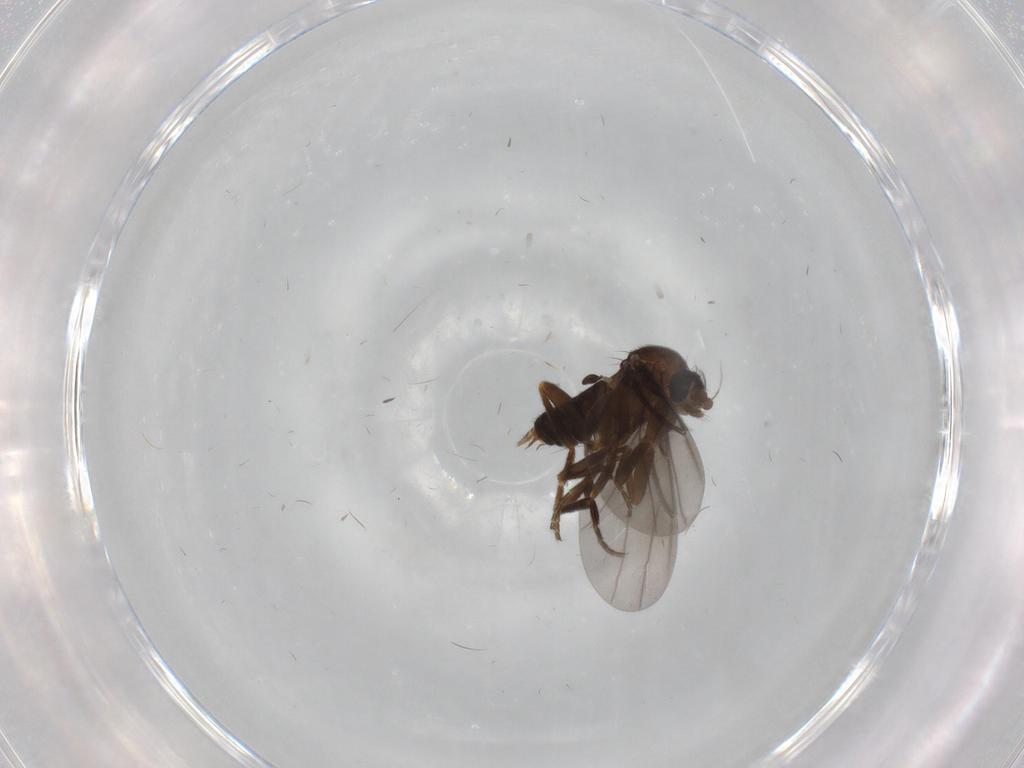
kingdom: Animalia
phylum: Arthropoda
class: Insecta
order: Diptera
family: Phoridae
